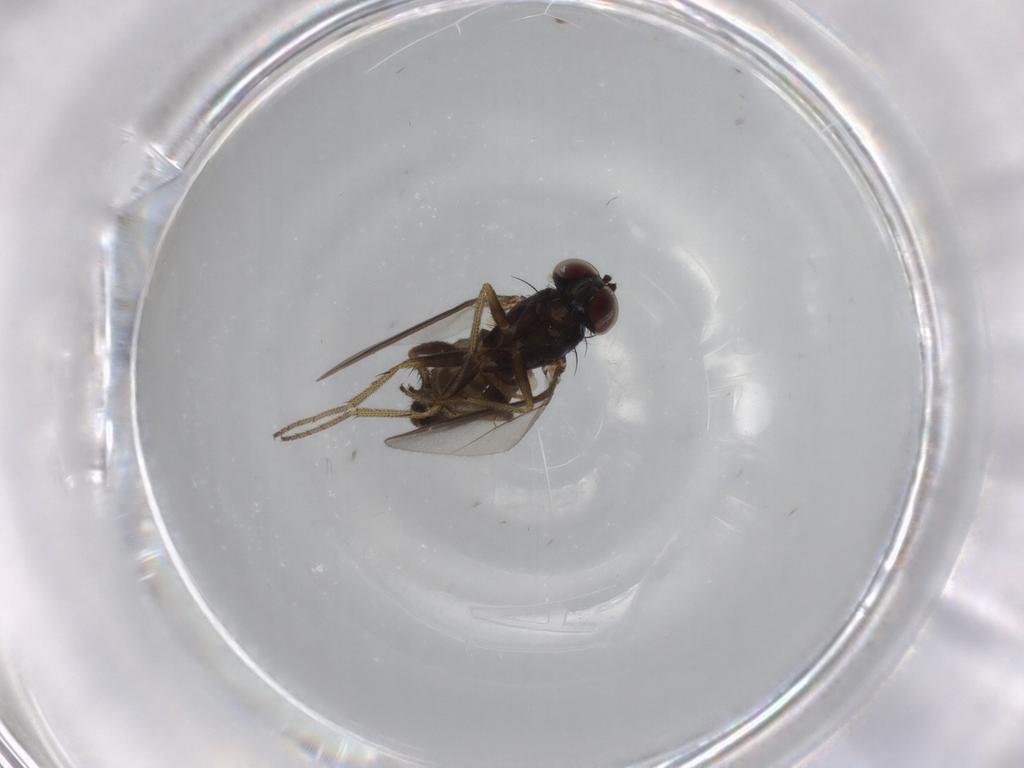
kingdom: Animalia
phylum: Arthropoda
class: Insecta
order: Diptera
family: Dolichopodidae
